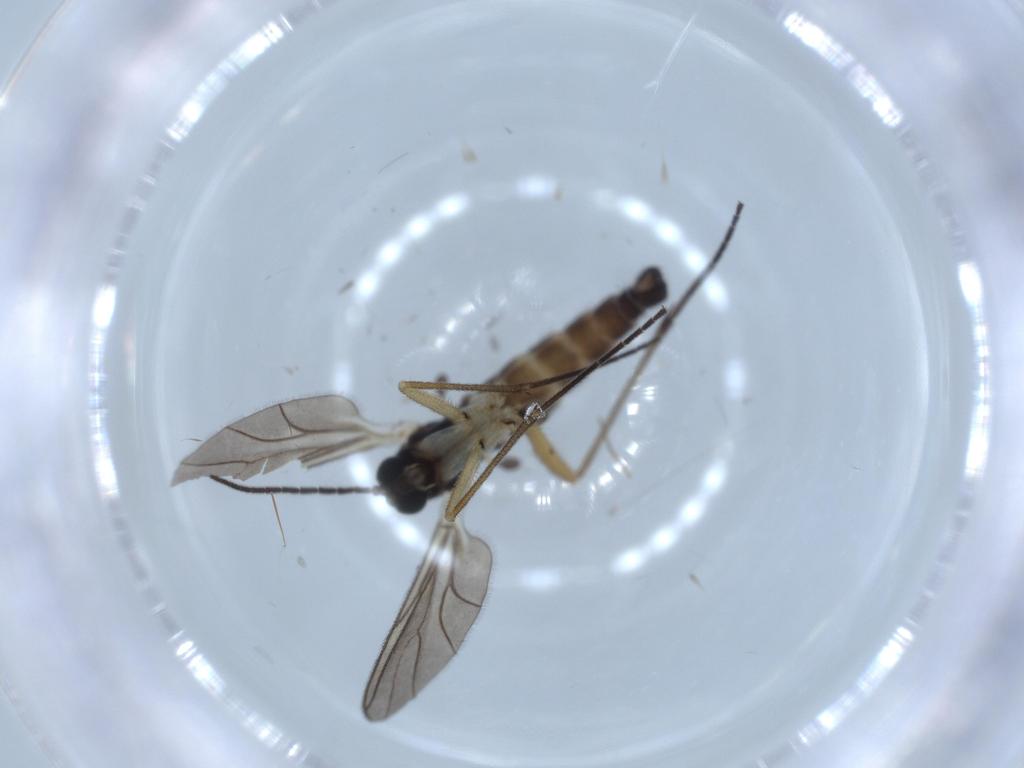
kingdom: Animalia
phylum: Arthropoda
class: Insecta
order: Diptera
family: Sciaridae
